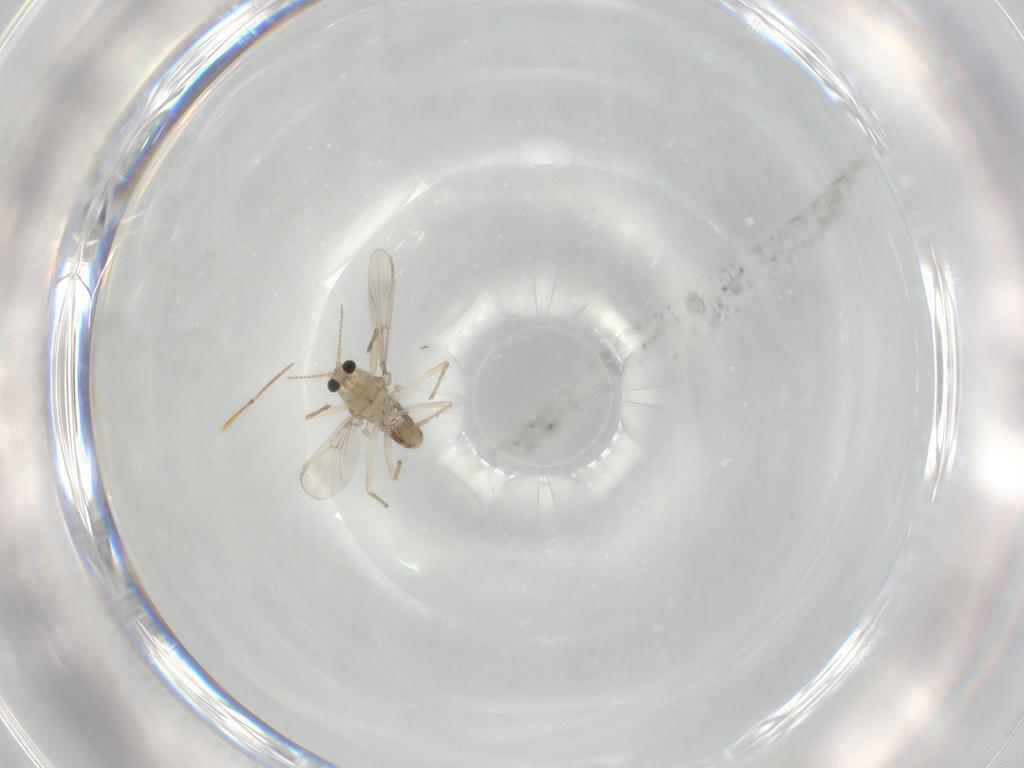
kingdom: Animalia
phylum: Arthropoda
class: Insecta
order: Diptera
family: Chironomidae
